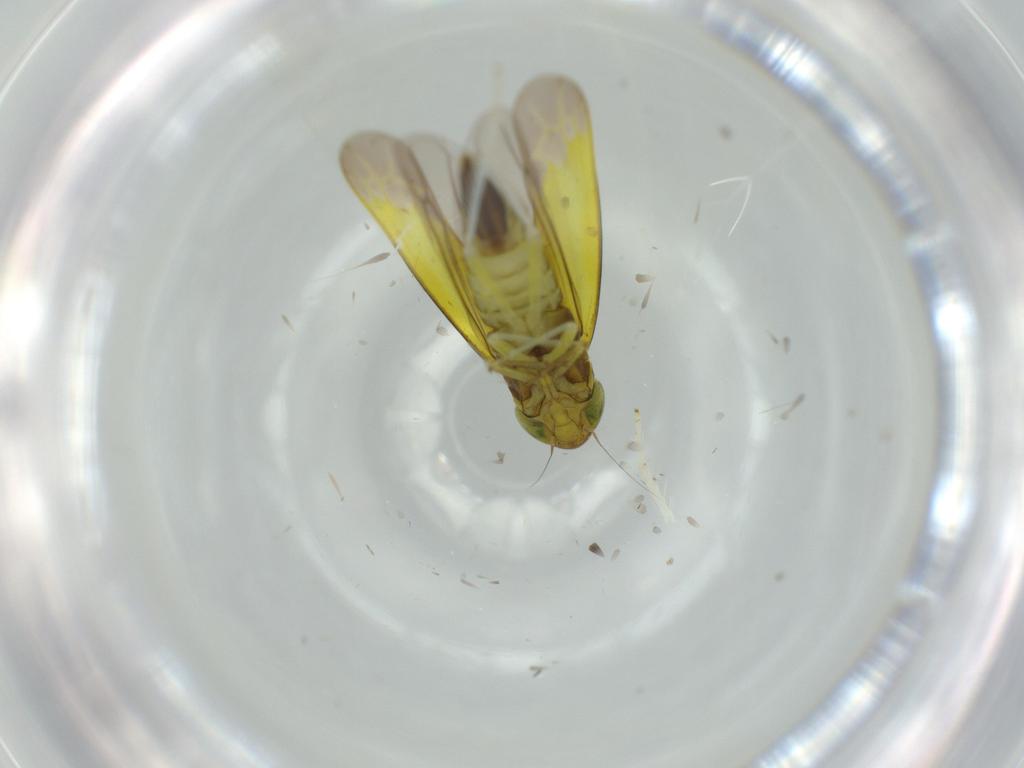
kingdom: Animalia
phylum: Arthropoda
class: Insecta
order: Hemiptera
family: Cicadellidae
